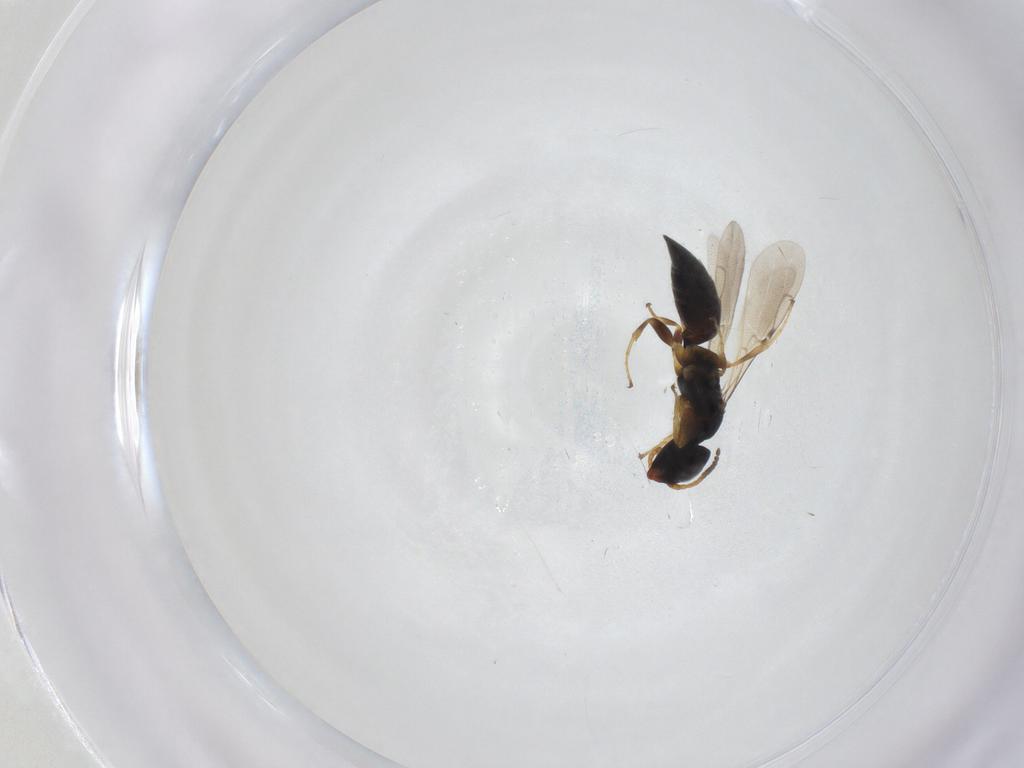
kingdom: Animalia
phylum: Arthropoda
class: Insecta
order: Hymenoptera
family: Bethylidae
